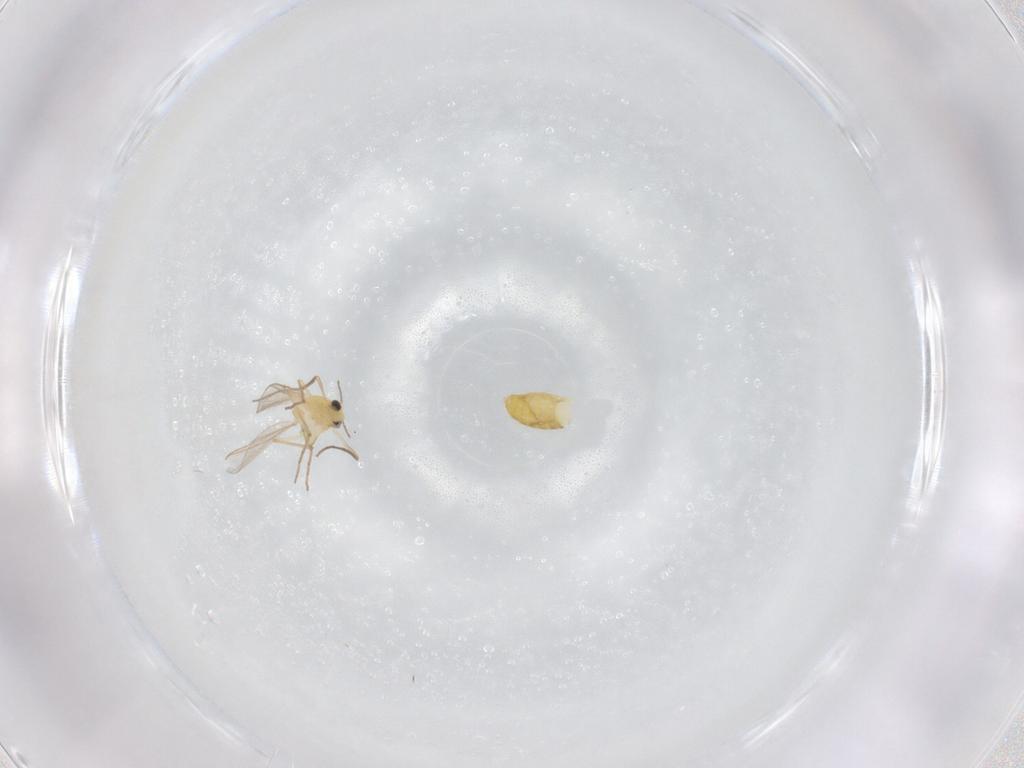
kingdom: Animalia
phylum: Arthropoda
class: Insecta
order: Diptera
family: Chironomidae
